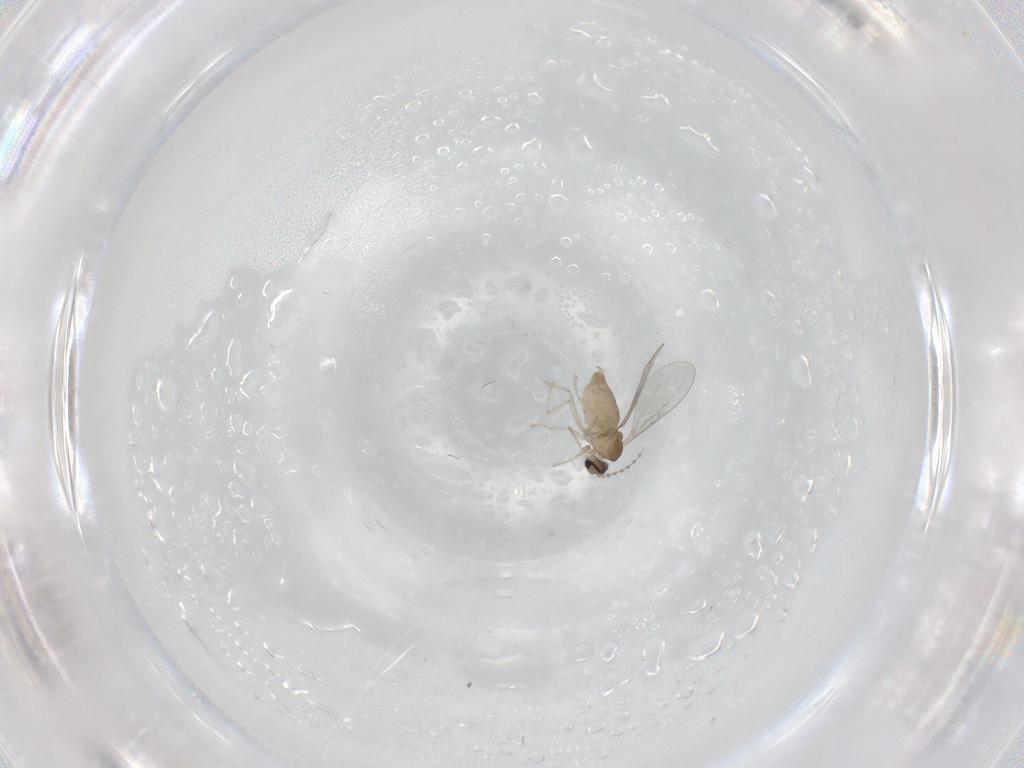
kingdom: Animalia
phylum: Arthropoda
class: Insecta
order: Diptera
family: Cecidomyiidae
